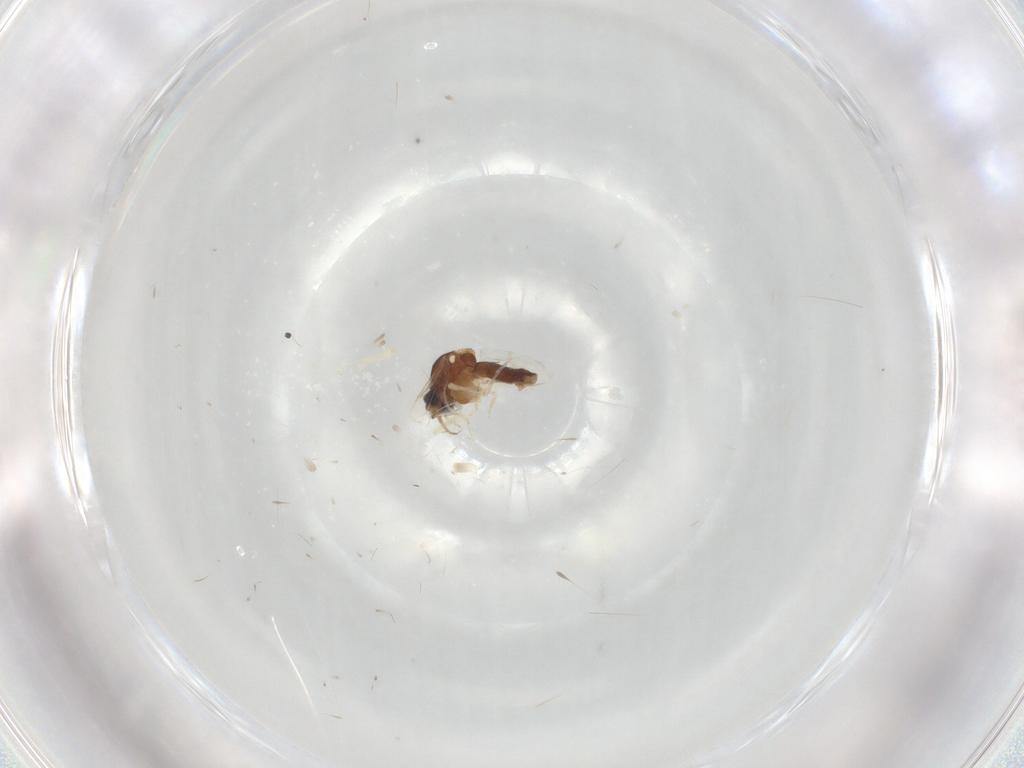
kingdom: Animalia
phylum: Arthropoda
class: Insecta
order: Diptera
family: Ceratopogonidae
